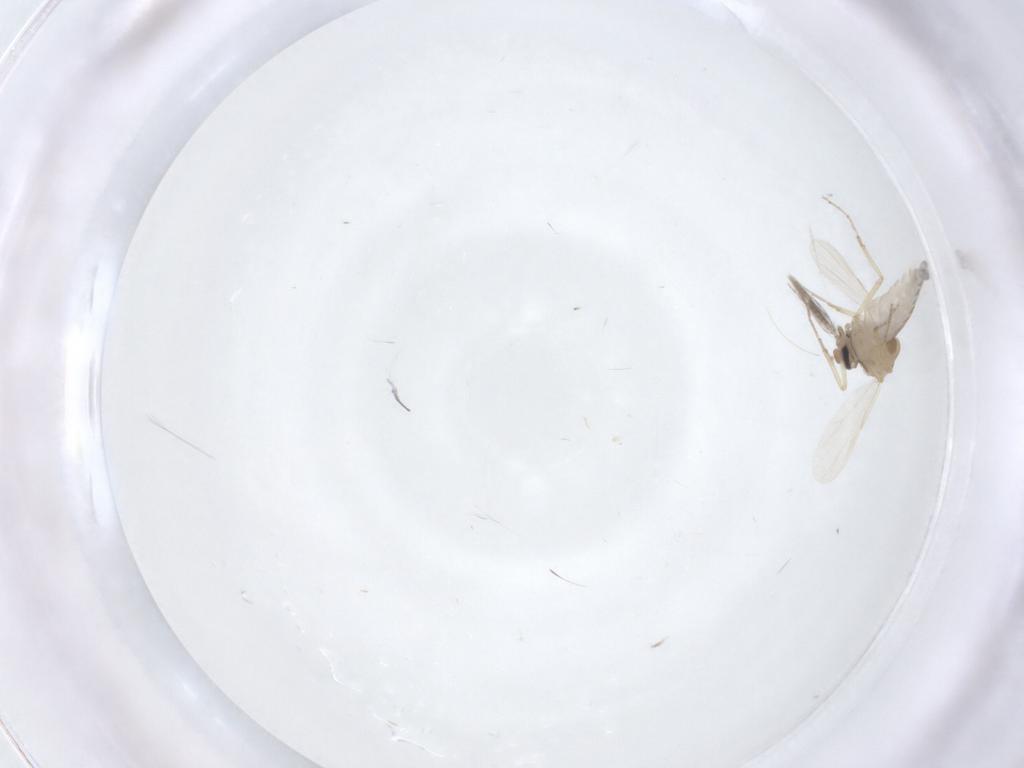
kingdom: Animalia
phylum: Arthropoda
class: Insecta
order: Diptera
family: Ceratopogonidae
